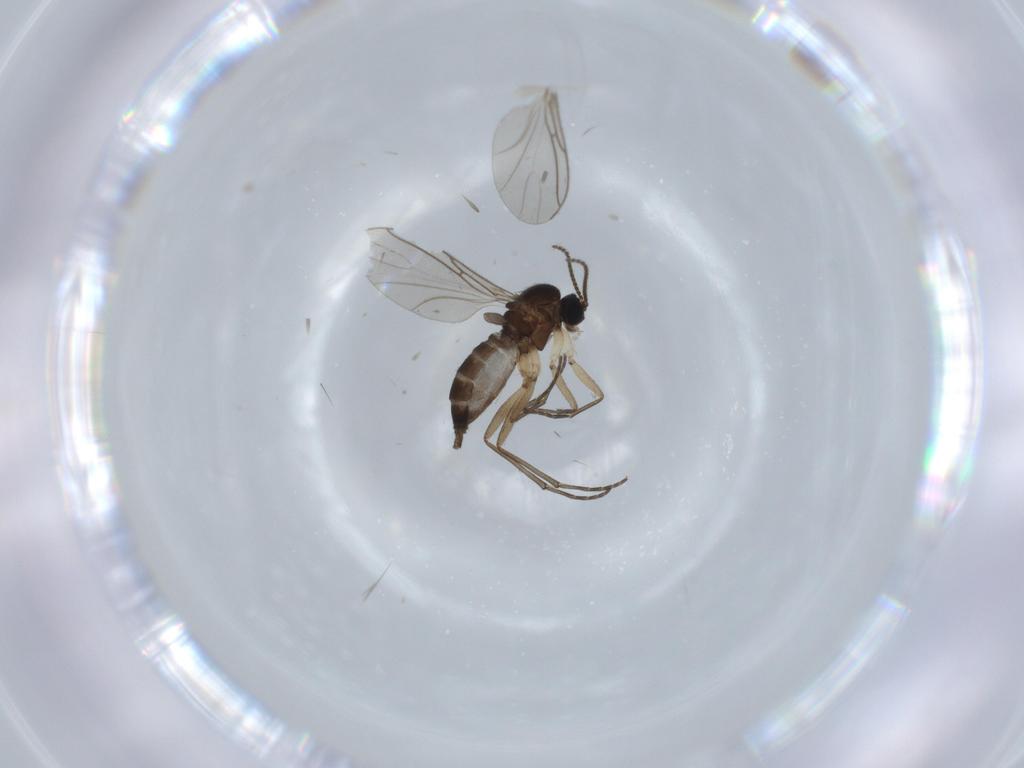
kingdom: Animalia
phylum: Arthropoda
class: Insecta
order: Diptera
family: Sciaridae
